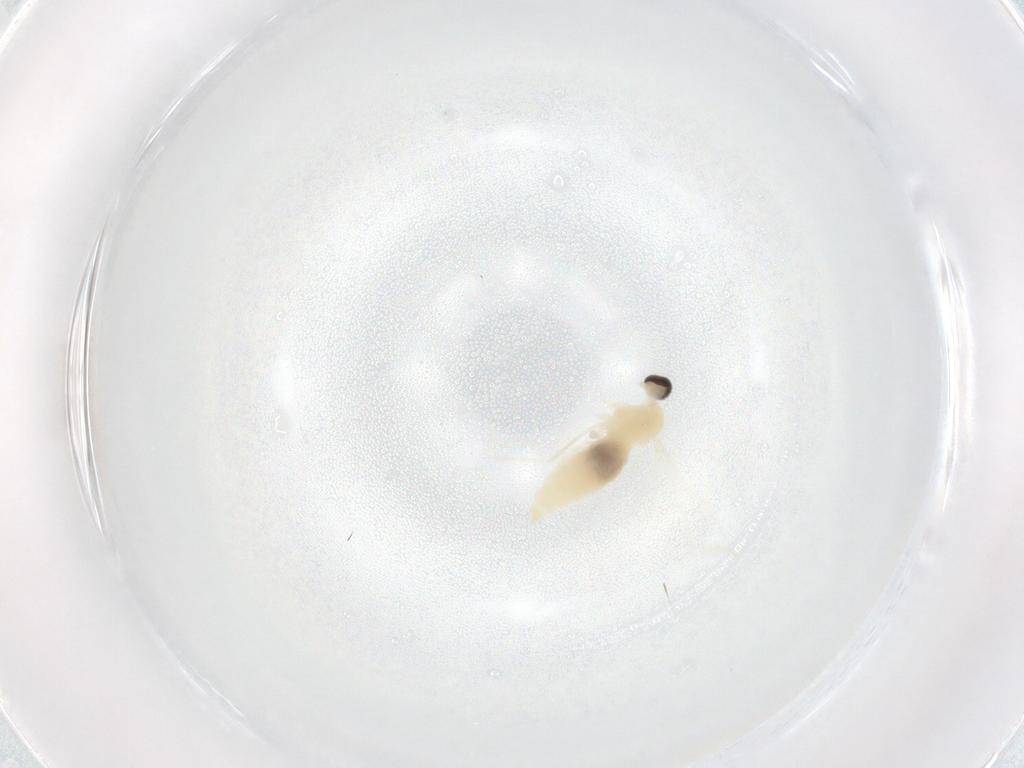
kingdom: Animalia
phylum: Arthropoda
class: Insecta
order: Diptera
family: Cecidomyiidae
